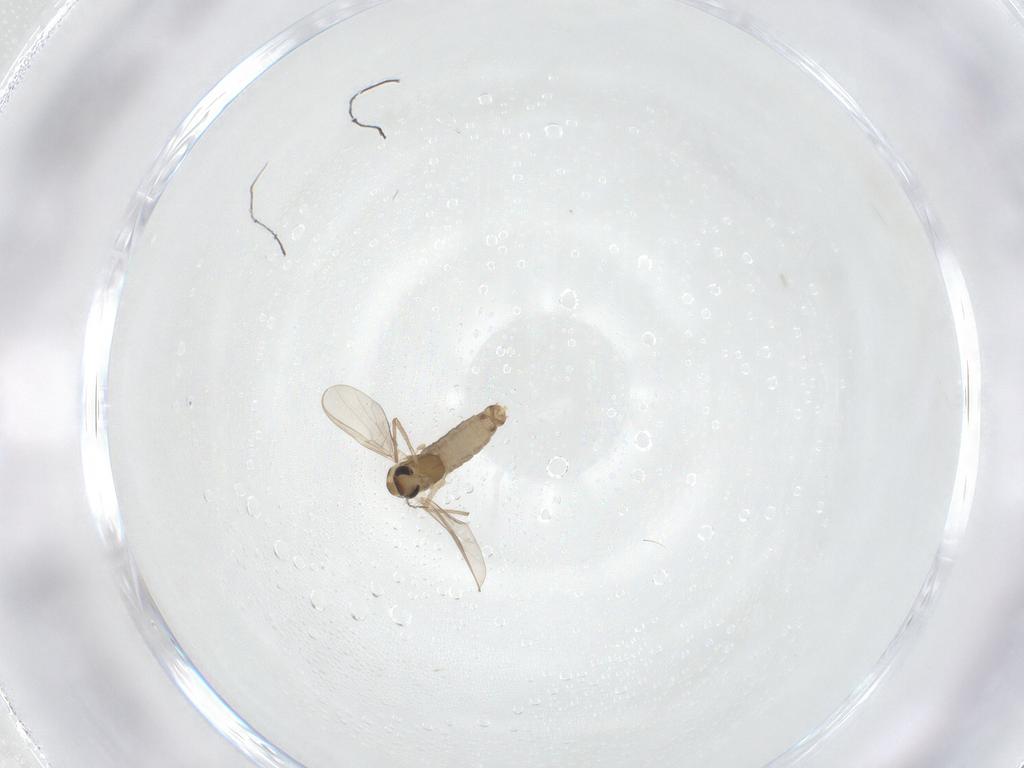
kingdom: Animalia
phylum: Arthropoda
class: Insecta
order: Diptera
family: Chironomidae
